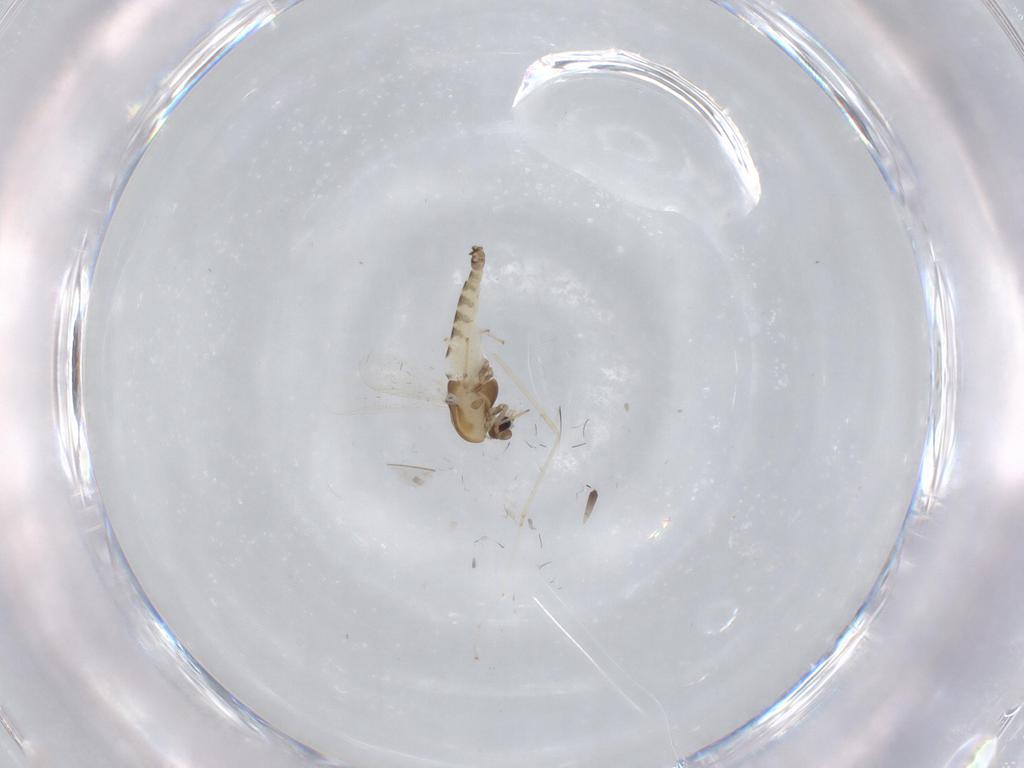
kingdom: Animalia
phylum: Arthropoda
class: Insecta
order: Diptera
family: Chironomidae
